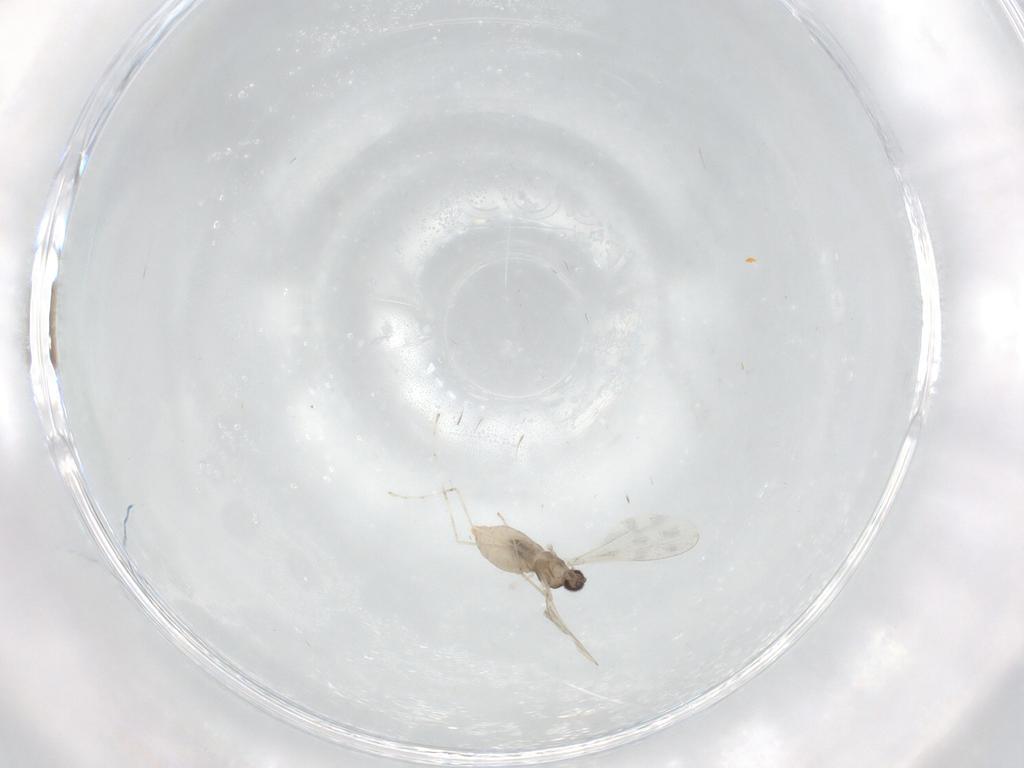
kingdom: Animalia
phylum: Arthropoda
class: Insecta
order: Diptera
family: Cecidomyiidae
